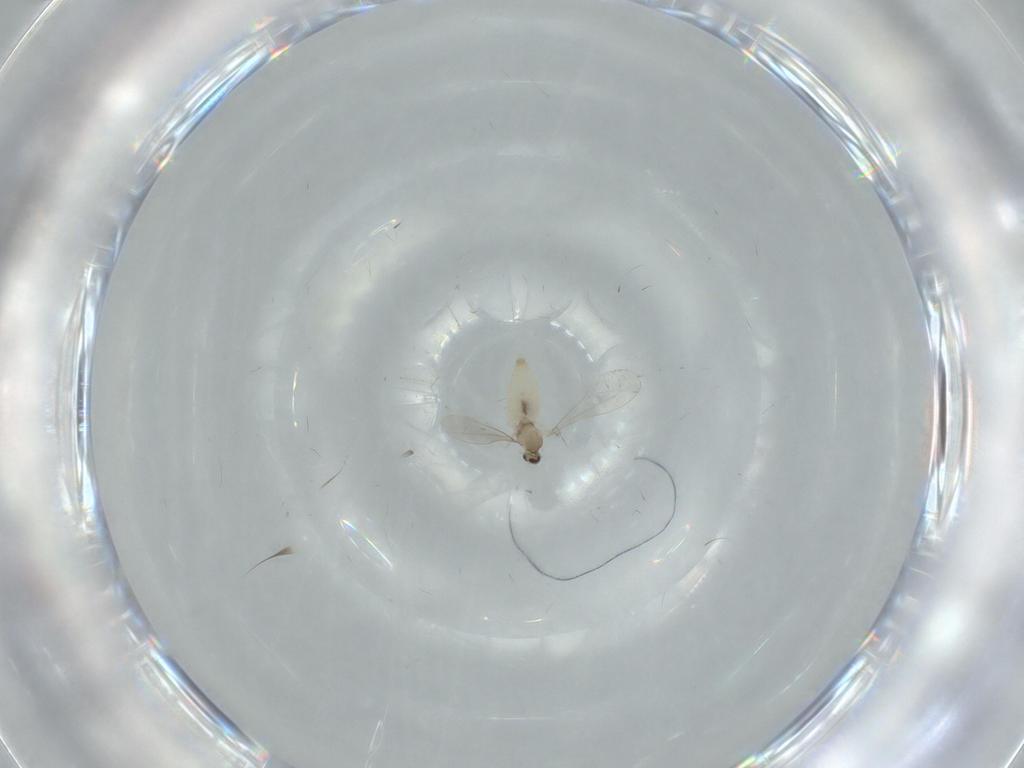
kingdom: Animalia
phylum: Arthropoda
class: Insecta
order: Diptera
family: Cecidomyiidae
